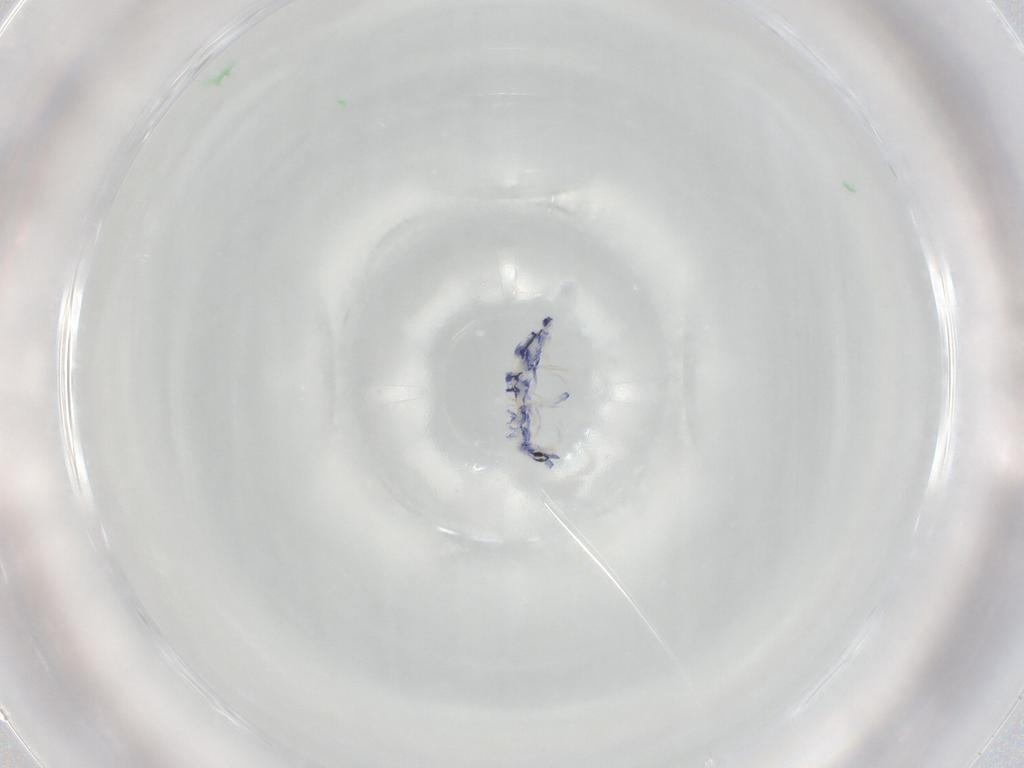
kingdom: Animalia
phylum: Arthropoda
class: Collembola
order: Entomobryomorpha
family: Entomobryidae
